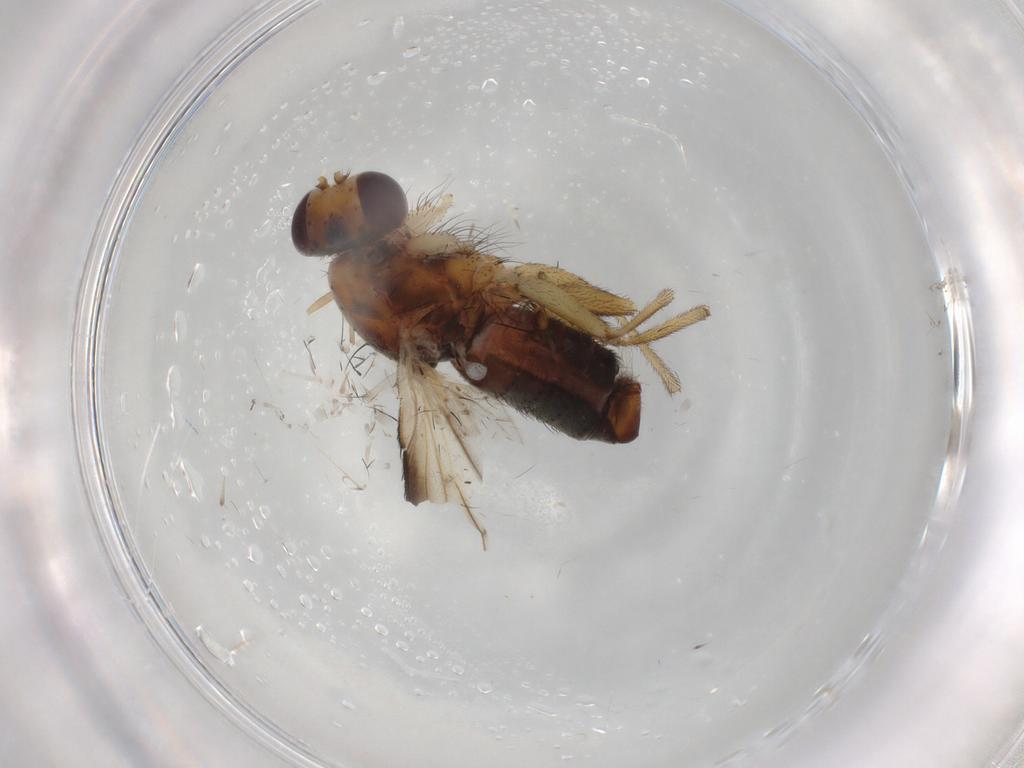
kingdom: Animalia
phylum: Arthropoda
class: Insecta
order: Diptera
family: Heleomyzidae
